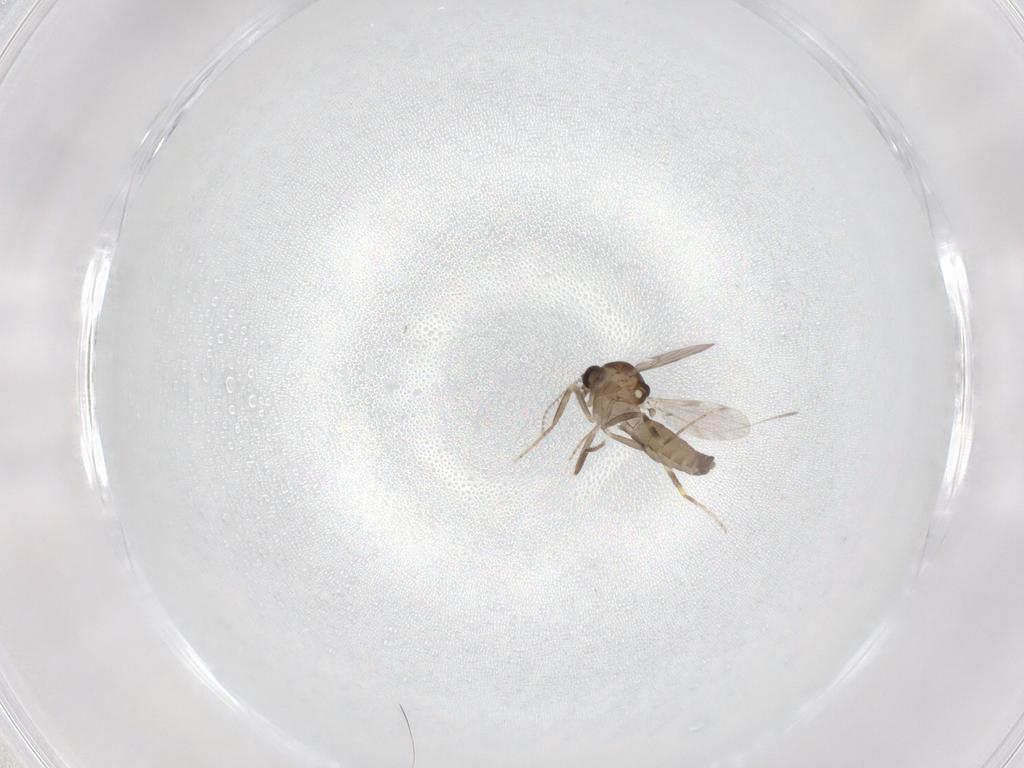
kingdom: Animalia
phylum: Arthropoda
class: Insecta
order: Diptera
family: Ceratopogonidae
